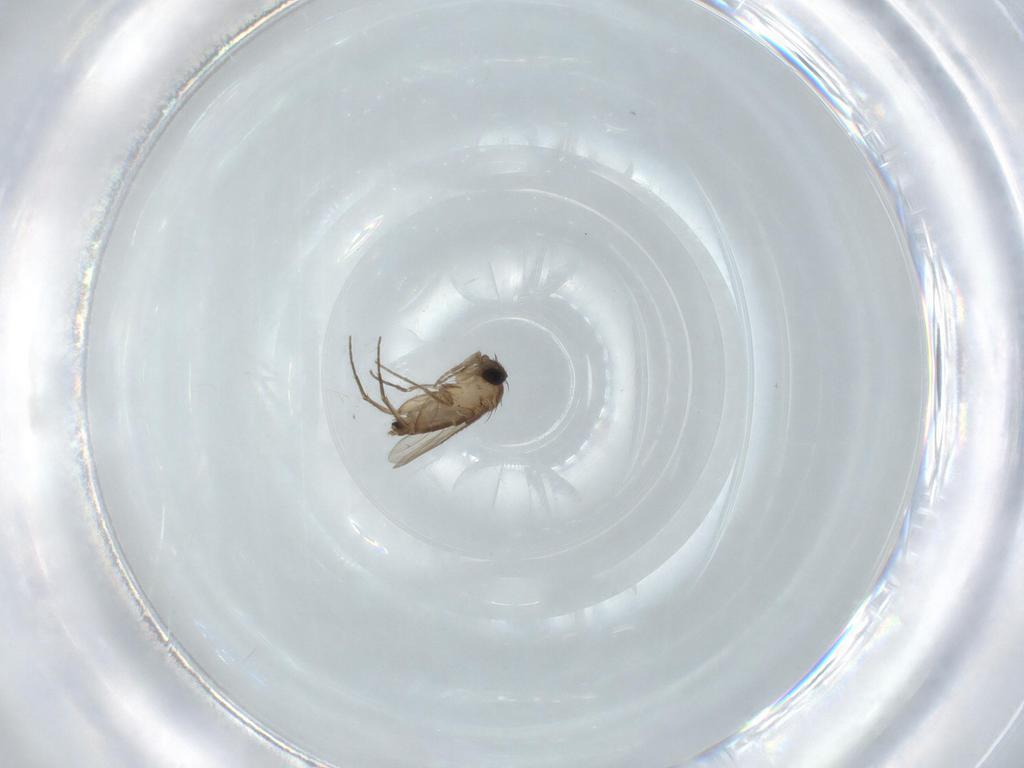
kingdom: Animalia
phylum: Arthropoda
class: Insecta
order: Diptera
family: Phoridae
